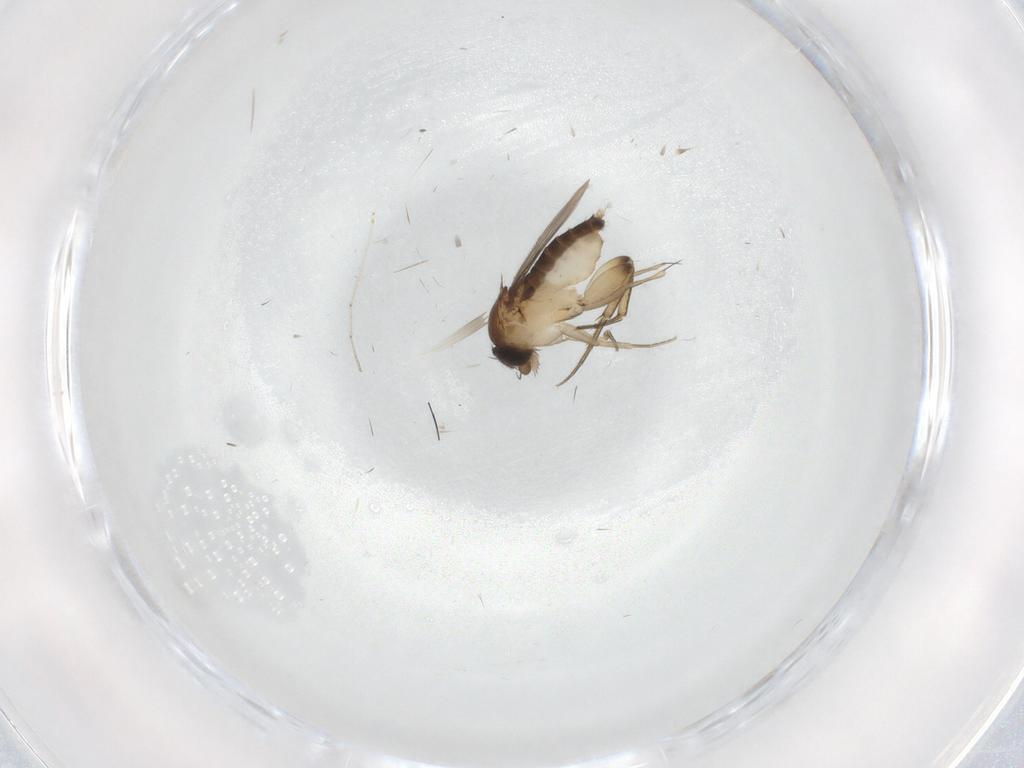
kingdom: Animalia
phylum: Arthropoda
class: Insecta
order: Diptera
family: Phoridae
